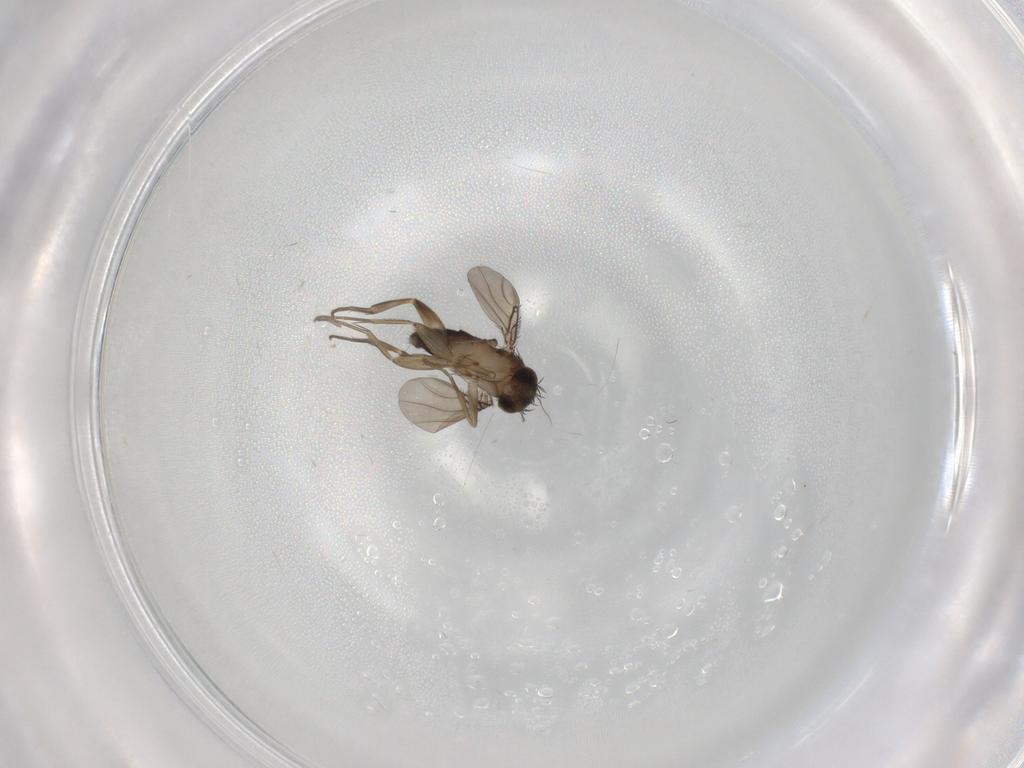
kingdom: Animalia
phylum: Arthropoda
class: Insecta
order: Diptera
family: Phoridae
